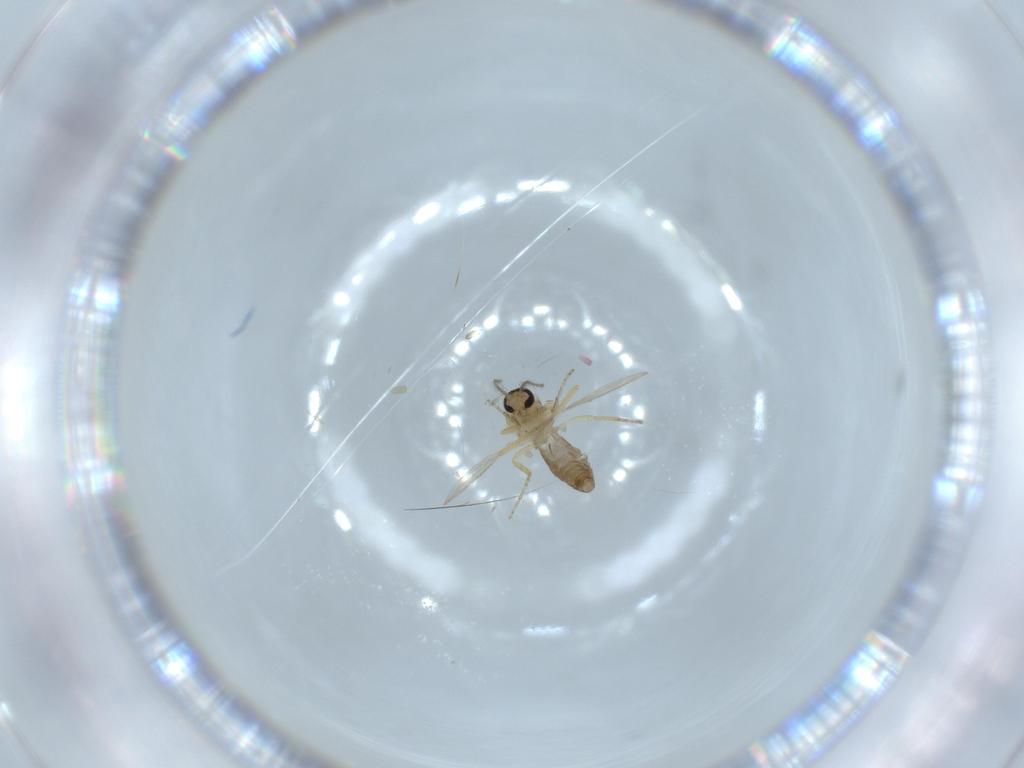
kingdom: Animalia
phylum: Arthropoda
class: Insecta
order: Diptera
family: Ceratopogonidae
